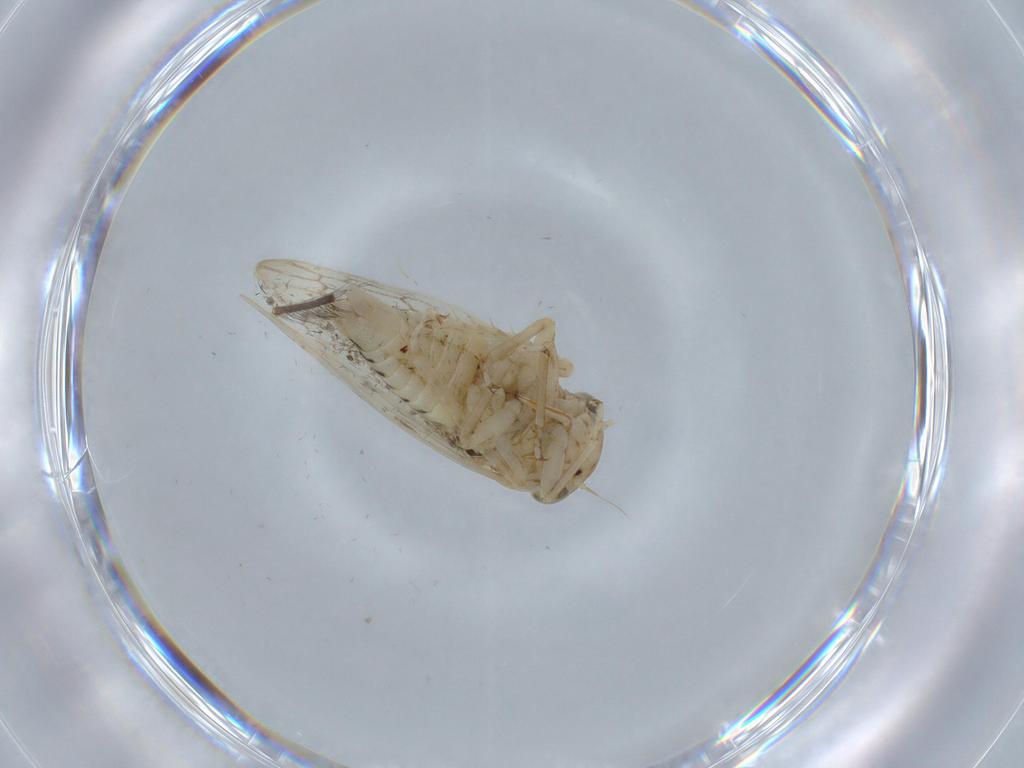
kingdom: Animalia
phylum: Arthropoda
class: Insecta
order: Hemiptera
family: Cicadellidae
